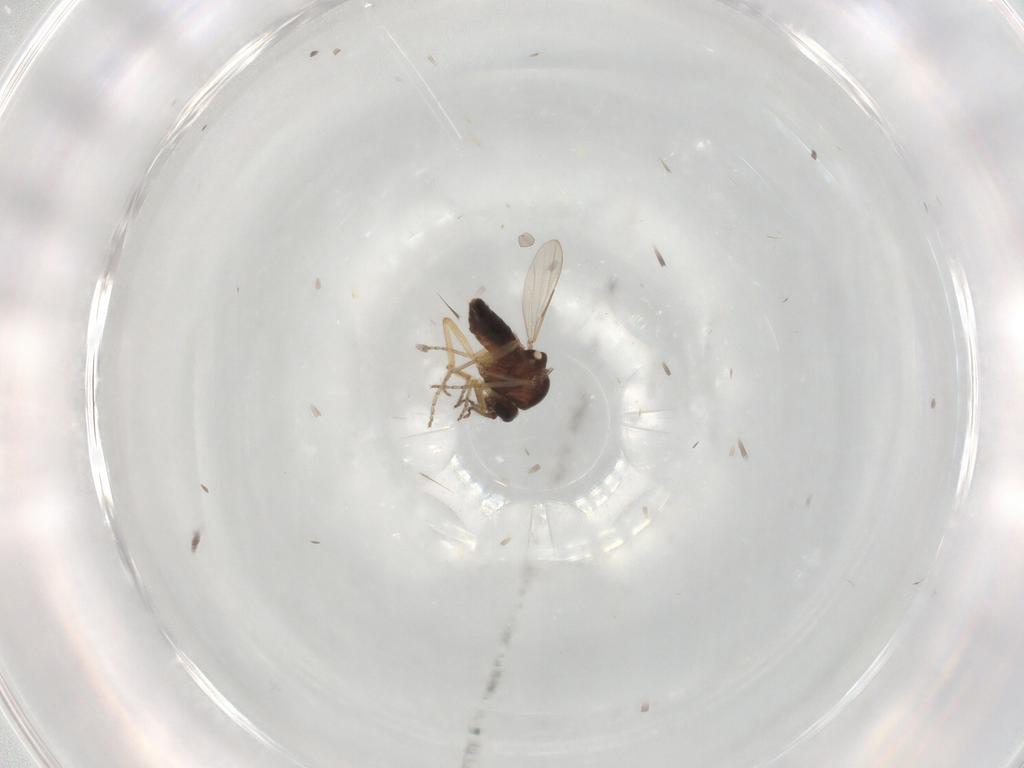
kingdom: Animalia
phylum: Arthropoda
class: Insecta
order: Diptera
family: Ceratopogonidae
